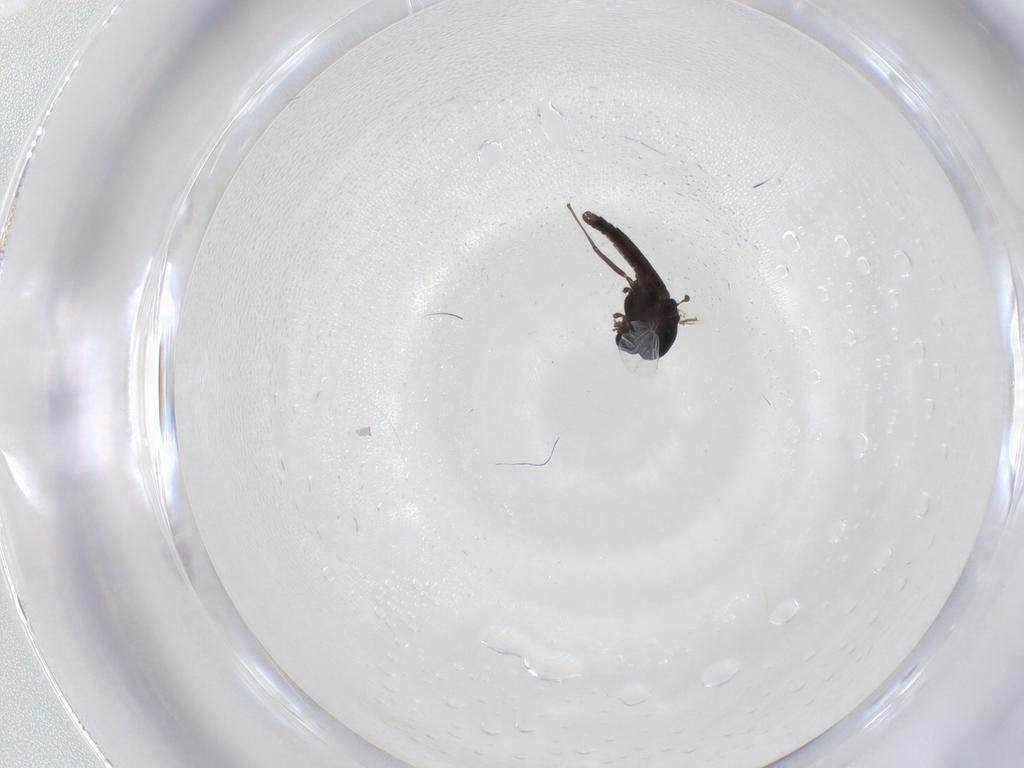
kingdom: Animalia
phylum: Arthropoda
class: Insecta
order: Diptera
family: Chironomidae
